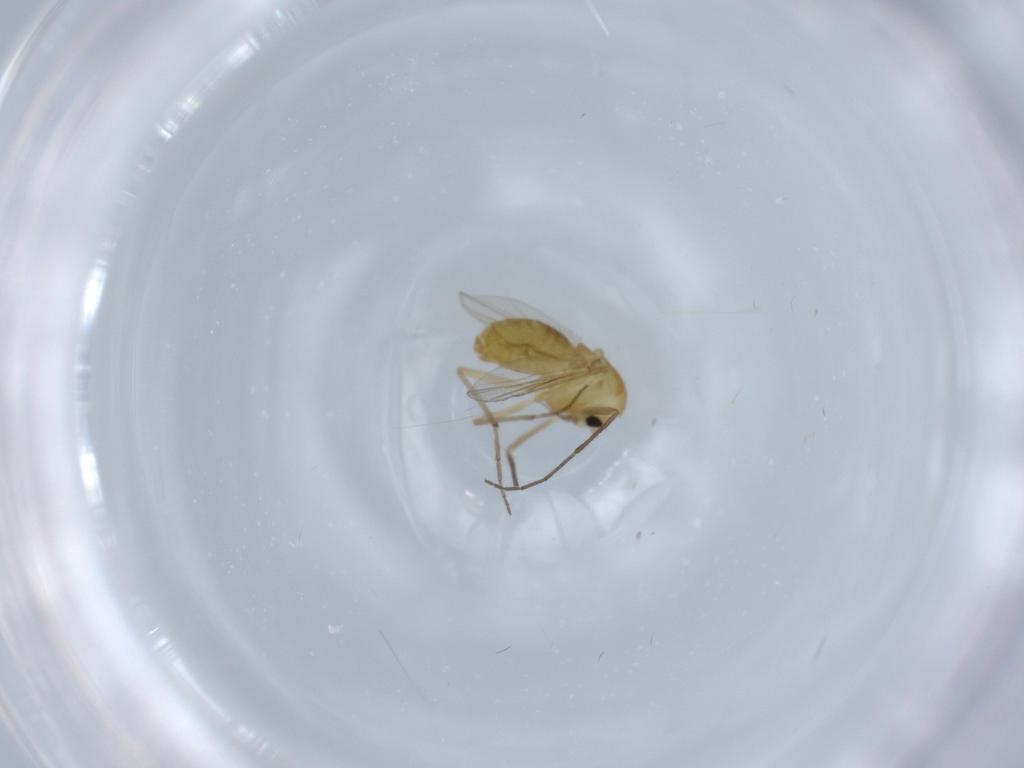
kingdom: Animalia
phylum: Arthropoda
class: Insecta
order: Diptera
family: Chironomidae
